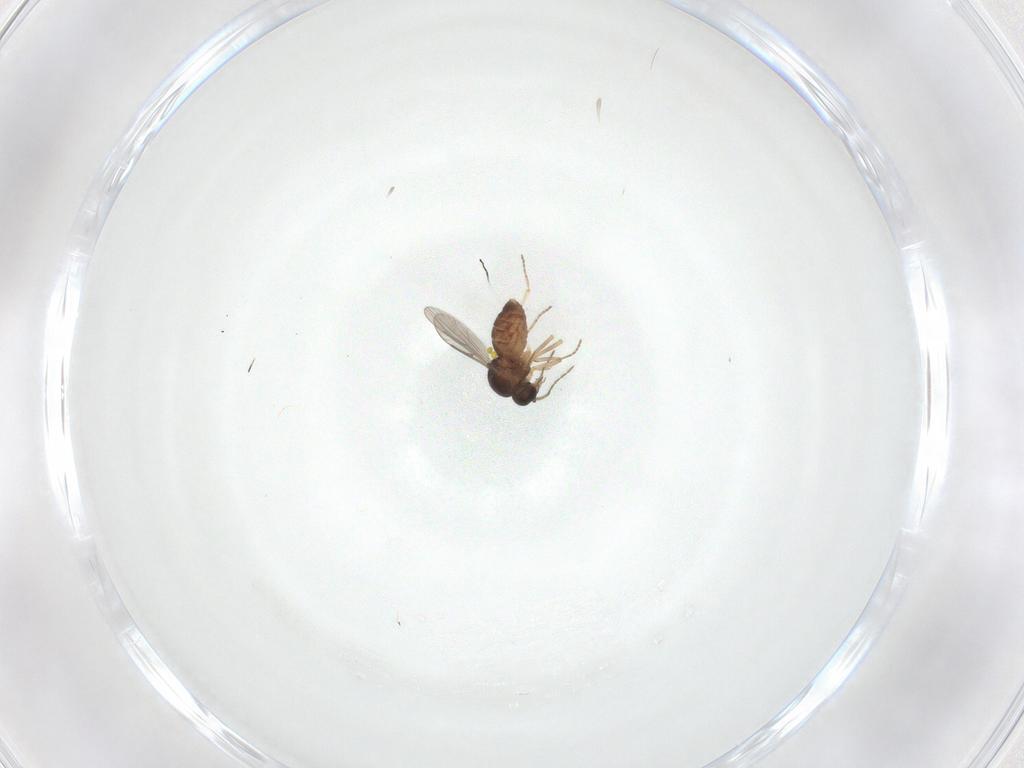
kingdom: Animalia
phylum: Arthropoda
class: Insecta
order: Diptera
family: Ceratopogonidae
